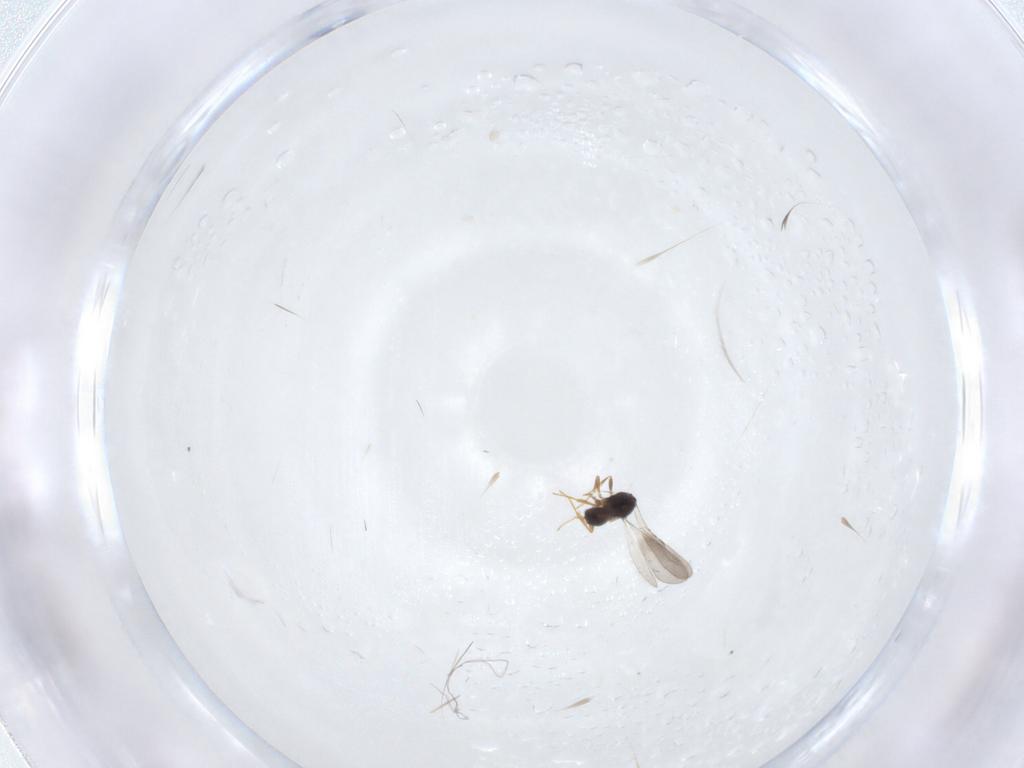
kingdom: Animalia
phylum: Arthropoda
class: Insecta
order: Hymenoptera
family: Ceraphronidae
